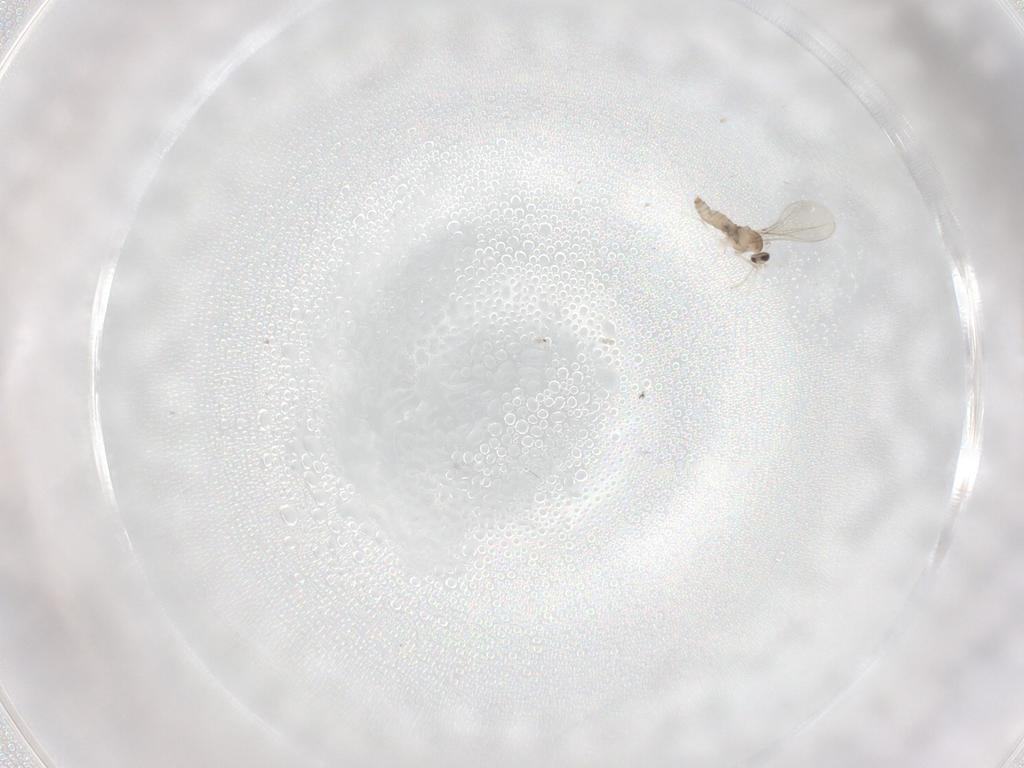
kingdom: Animalia
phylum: Arthropoda
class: Insecta
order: Diptera
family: Cecidomyiidae
